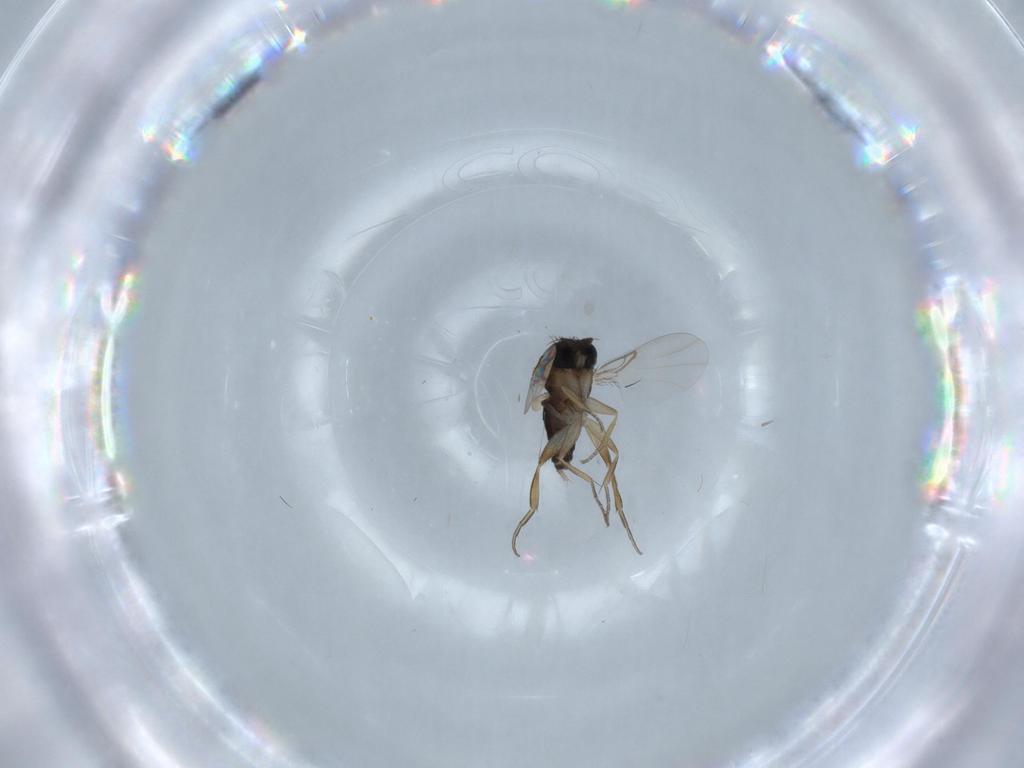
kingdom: Animalia
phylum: Arthropoda
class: Insecta
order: Diptera
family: Phoridae
